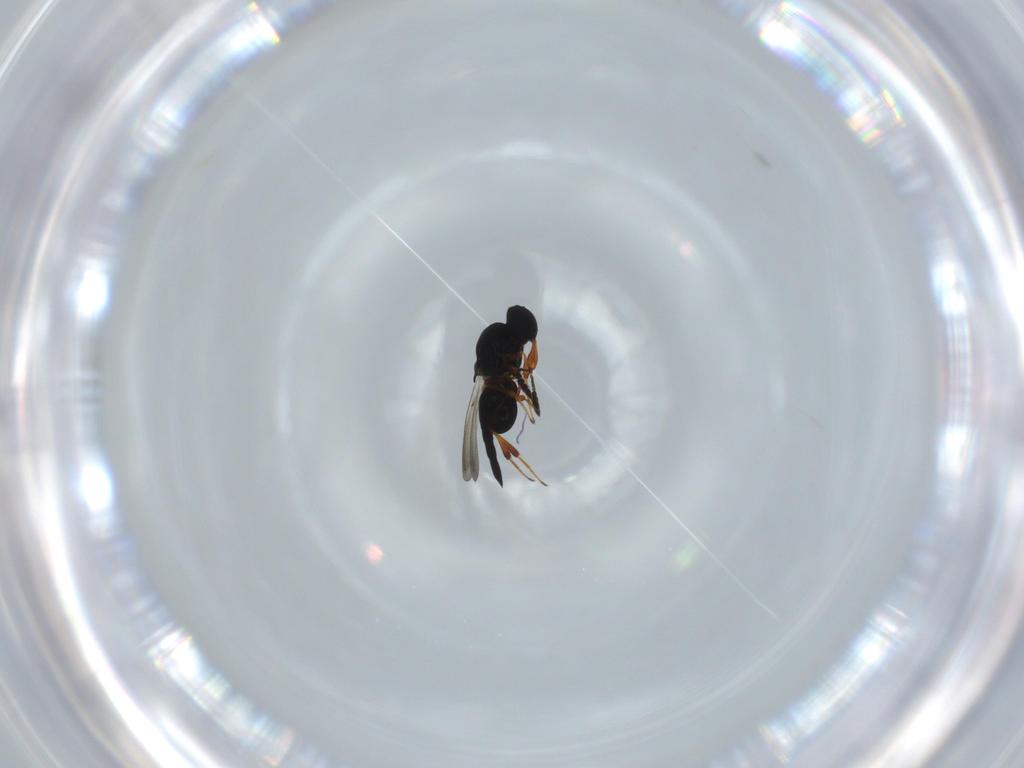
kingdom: Animalia
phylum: Arthropoda
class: Insecta
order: Hymenoptera
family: Platygastridae
